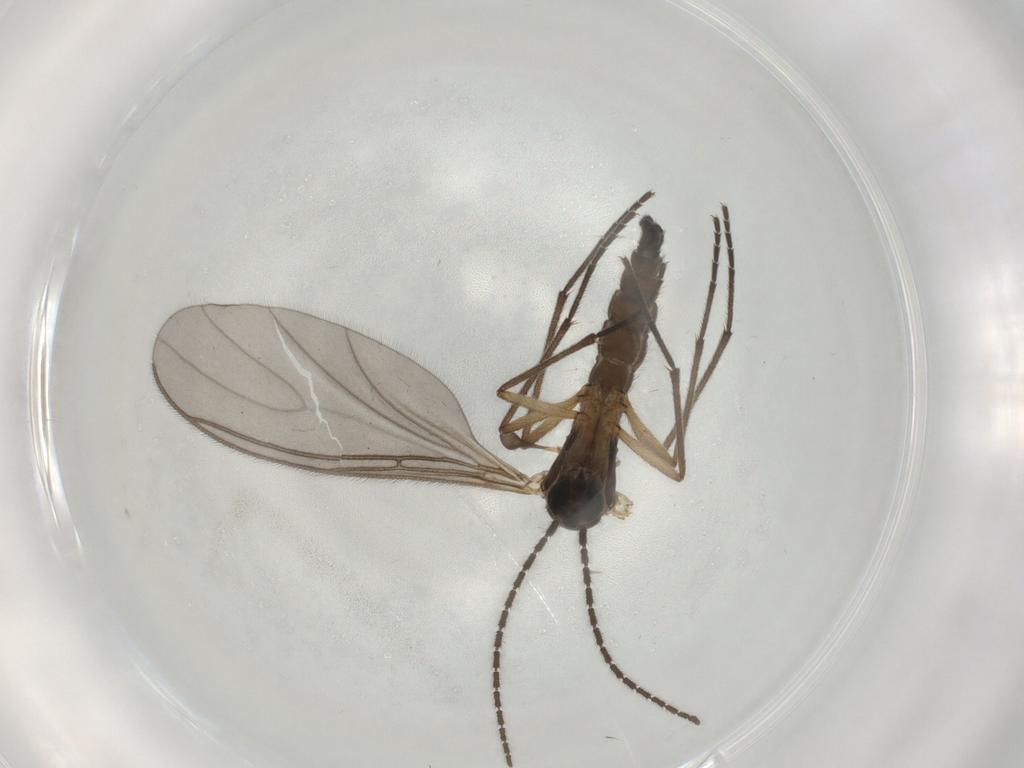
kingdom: Animalia
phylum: Arthropoda
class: Insecta
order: Diptera
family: Sciaridae
